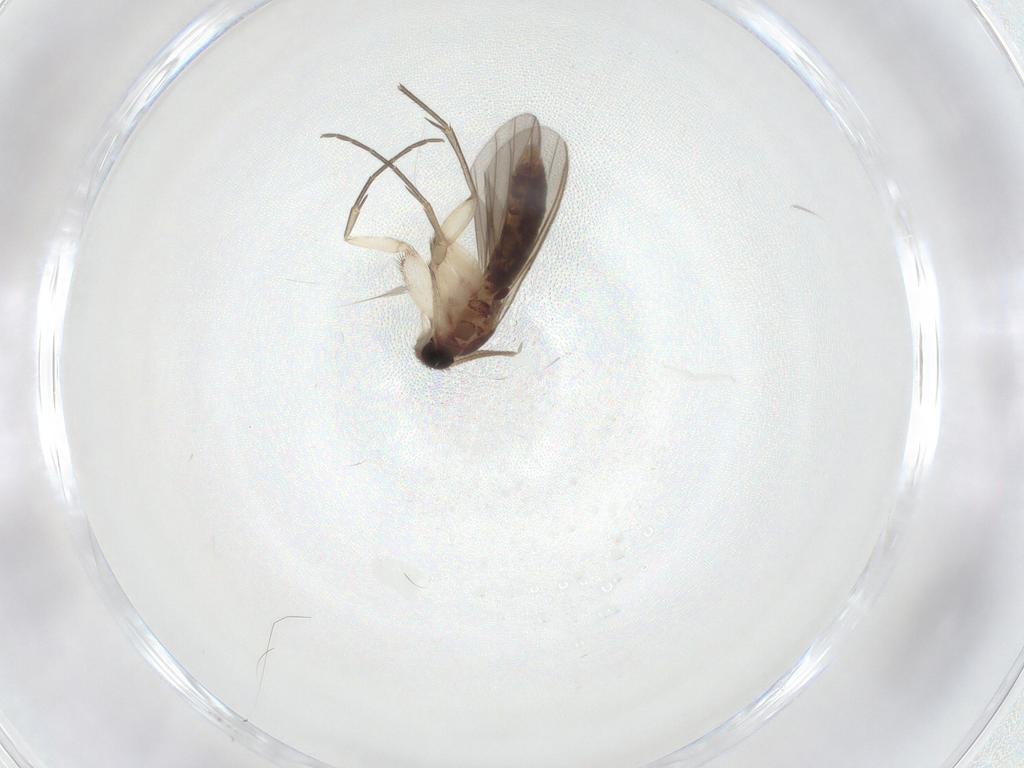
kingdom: Animalia
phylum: Arthropoda
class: Insecta
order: Diptera
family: Mycetophilidae
